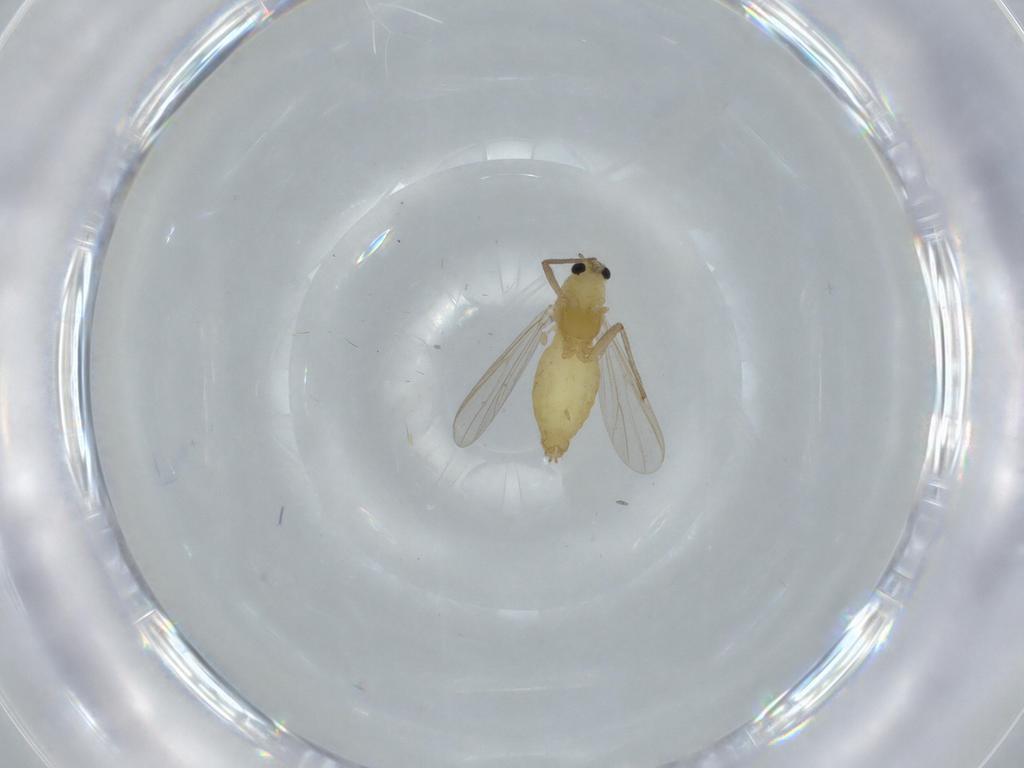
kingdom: Animalia
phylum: Arthropoda
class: Insecta
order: Diptera
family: Chironomidae
